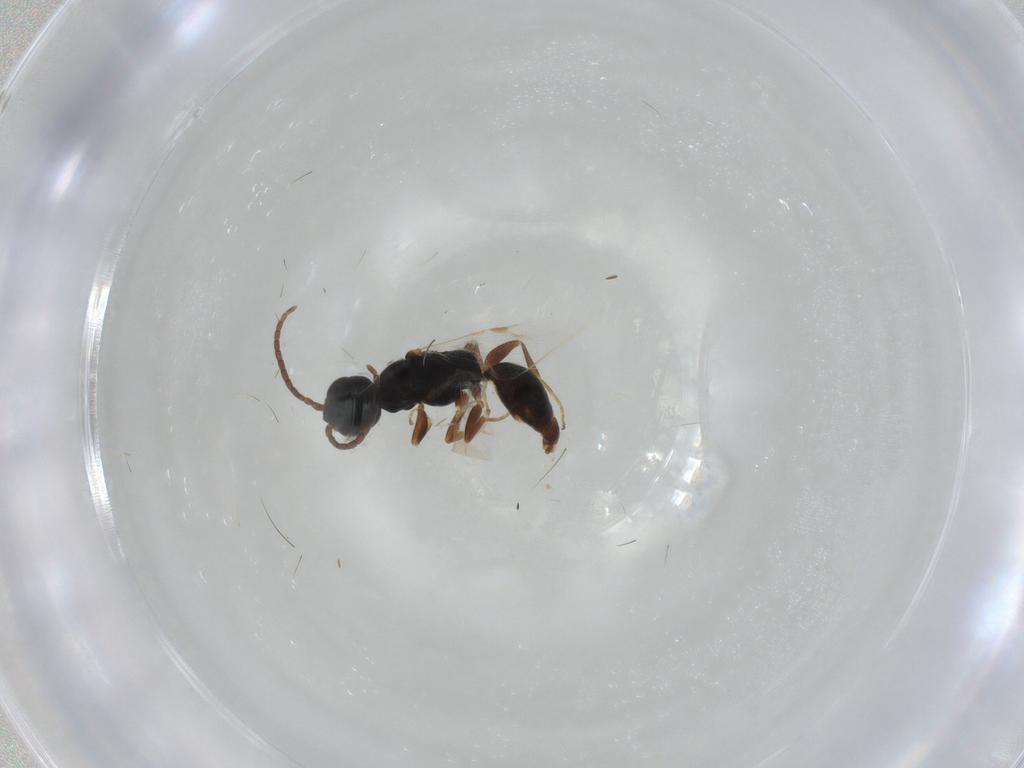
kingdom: Animalia
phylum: Arthropoda
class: Insecta
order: Hymenoptera
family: Bethylidae
